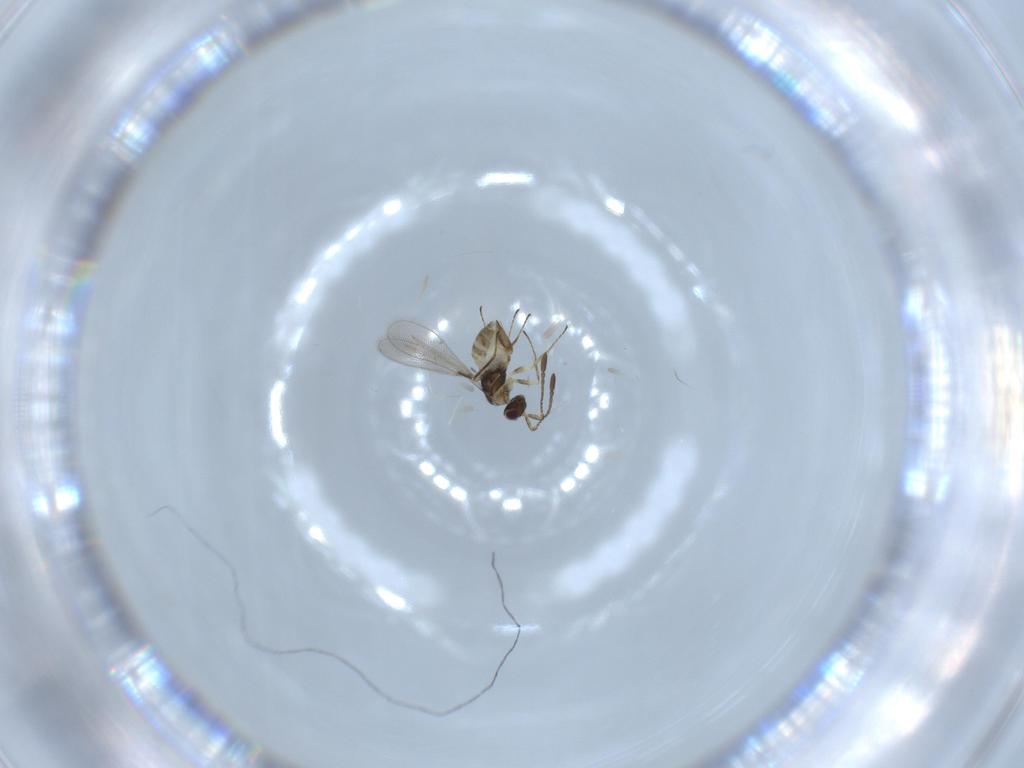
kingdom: Animalia
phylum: Arthropoda
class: Insecta
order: Hymenoptera
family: Mymaridae
